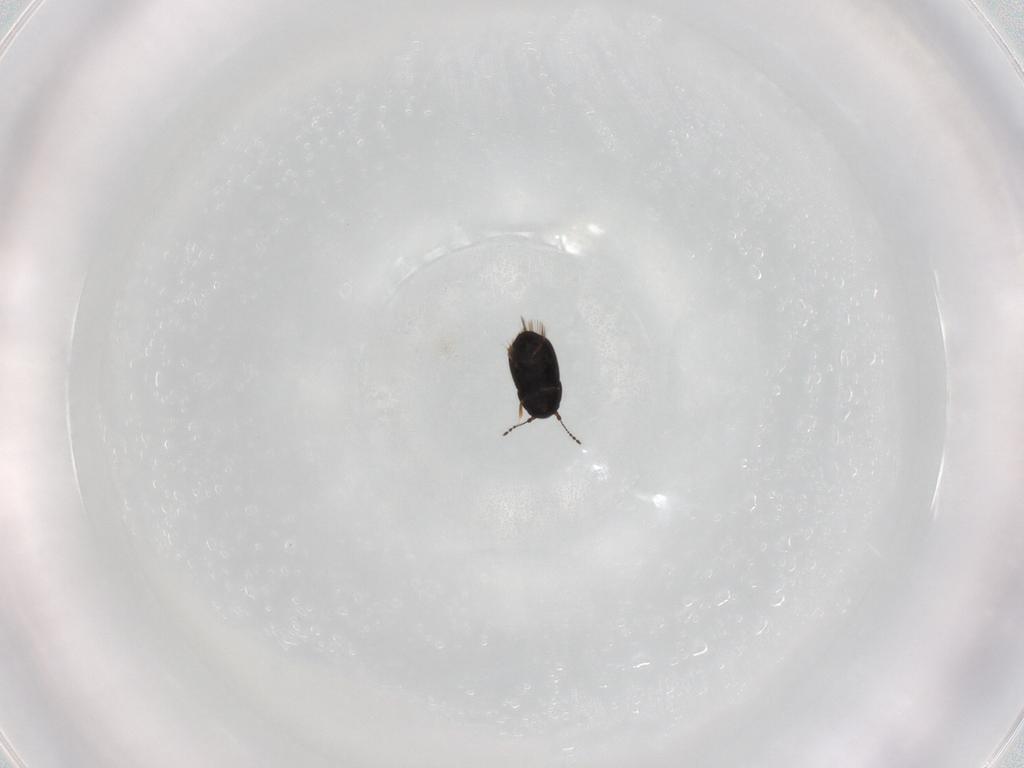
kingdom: Animalia
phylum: Arthropoda
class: Insecta
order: Coleoptera
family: Ptiliidae
